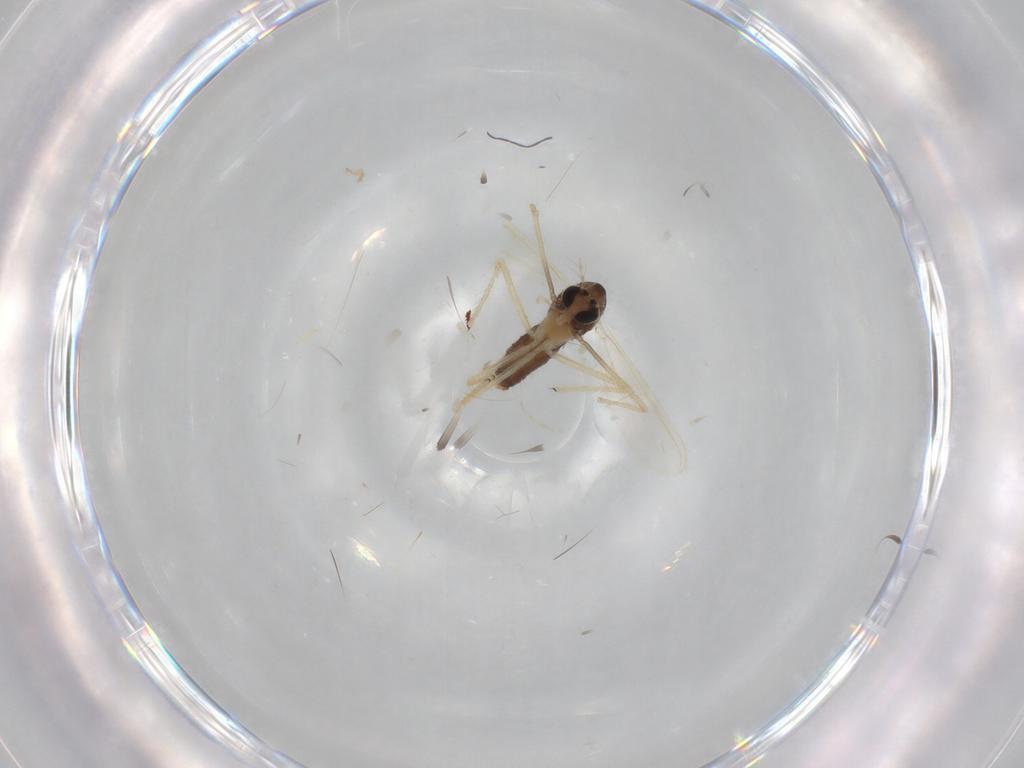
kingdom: Animalia
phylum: Arthropoda
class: Insecta
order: Diptera
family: Chironomidae
